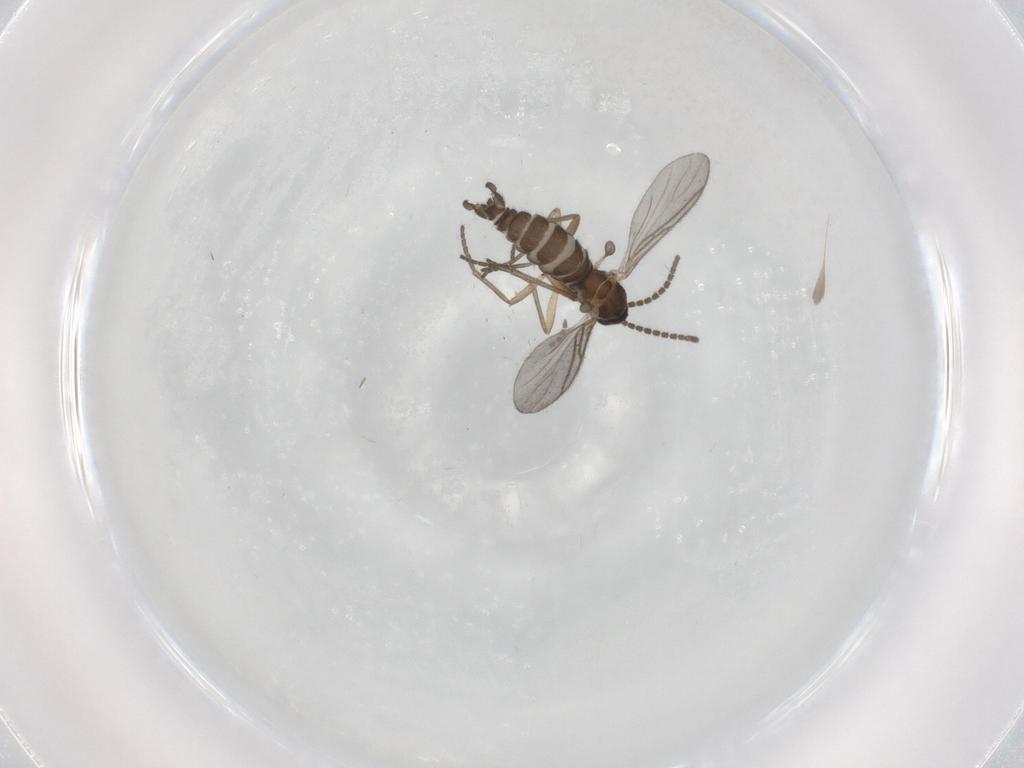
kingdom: Animalia
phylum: Arthropoda
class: Insecta
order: Diptera
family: Sciaridae
